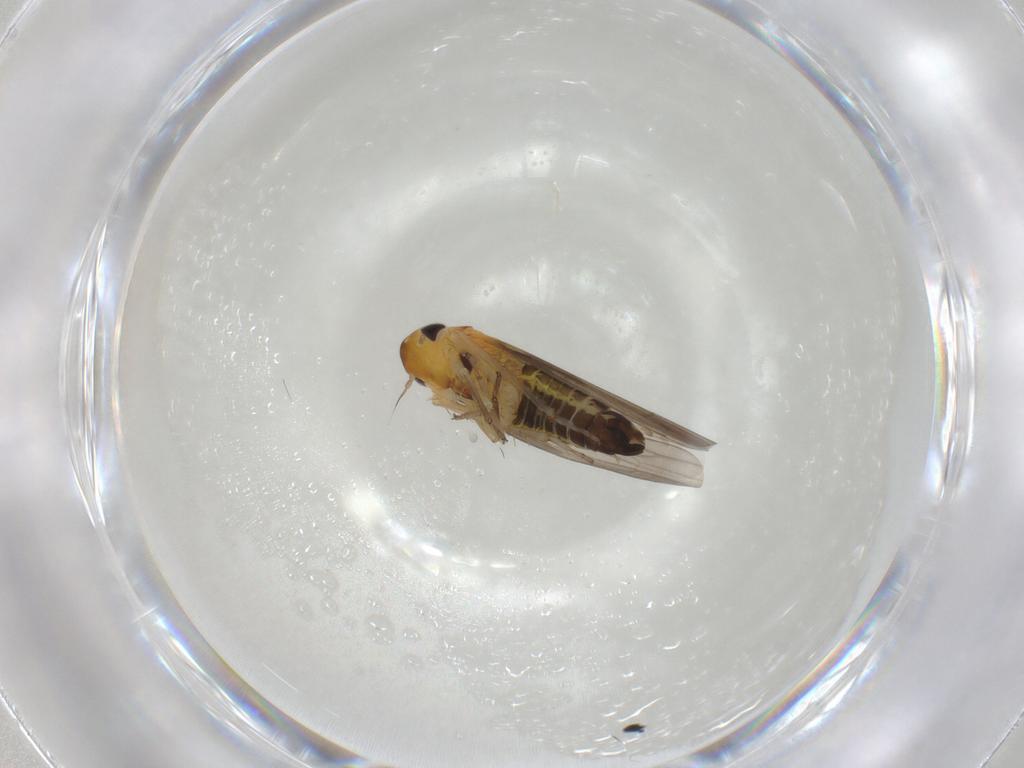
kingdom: Animalia
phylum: Arthropoda
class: Insecta
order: Hemiptera
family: Cicadellidae
